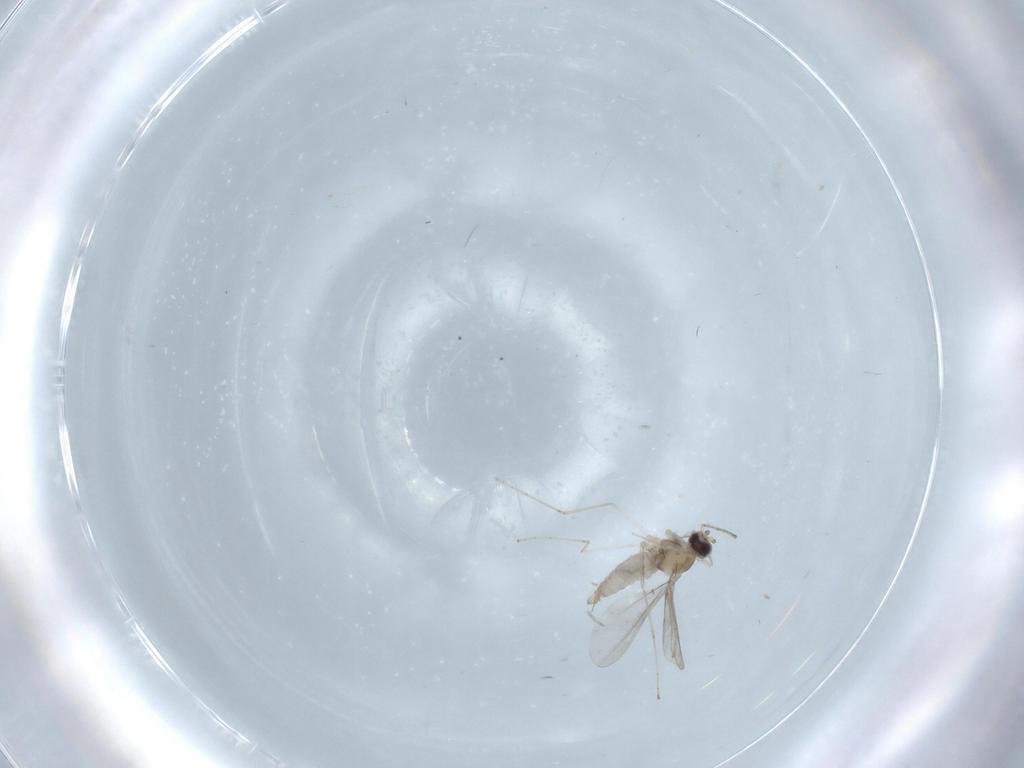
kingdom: Animalia
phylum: Arthropoda
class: Insecta
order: Diptera
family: Cecidomyiidae
